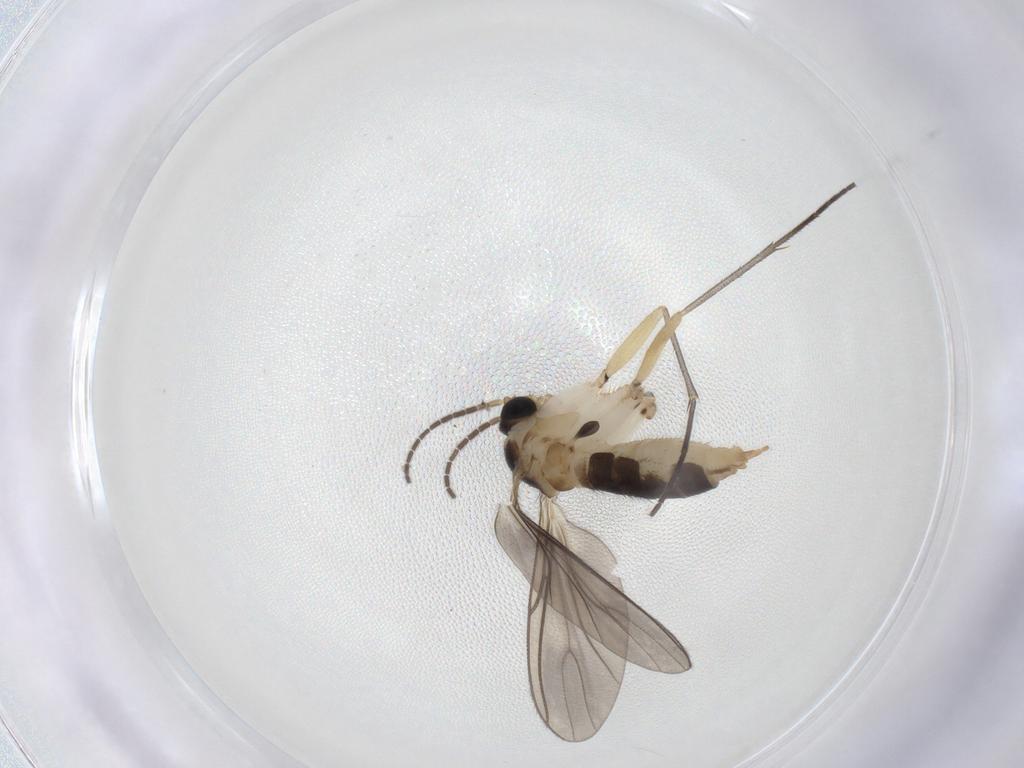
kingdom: Animalia
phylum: Arthropoda
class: Insecta
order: Diptera
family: Sciaridae
